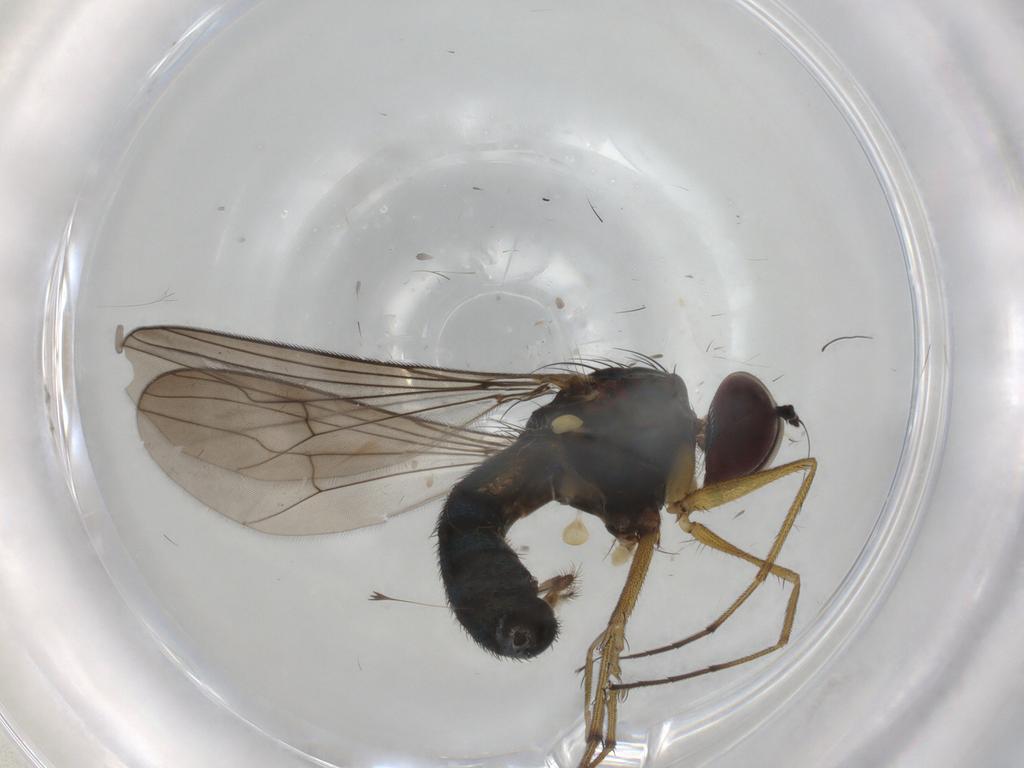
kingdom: Animalia
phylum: Arthropoda
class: Insecta
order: Diptera
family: Dolichopodidae
